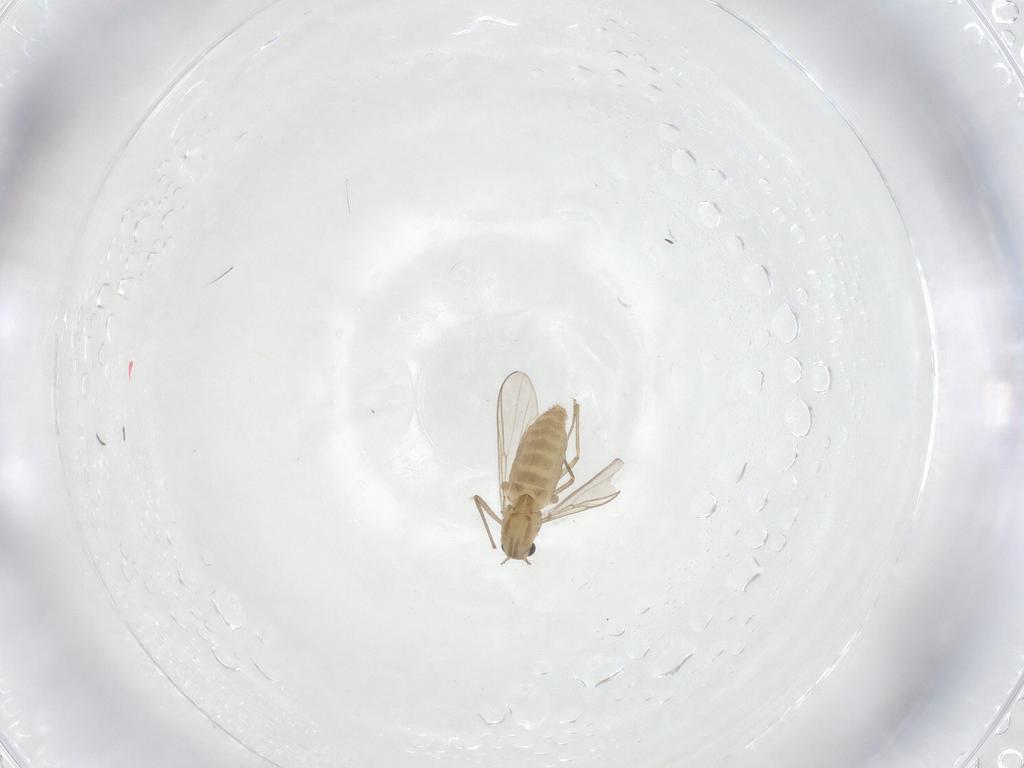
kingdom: Animalia
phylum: Arthropoda
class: Insecta
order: Diptera
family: Chironomidae
